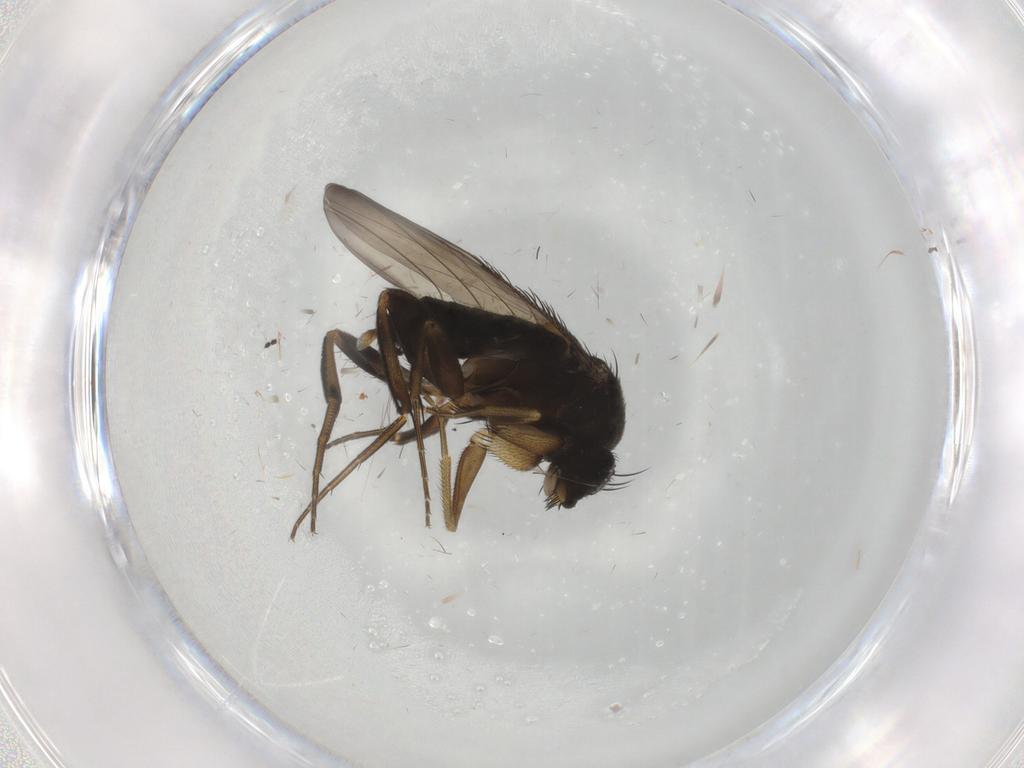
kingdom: Animalia
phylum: Arthropoda
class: Insecta
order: Diptera
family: Phoridae
